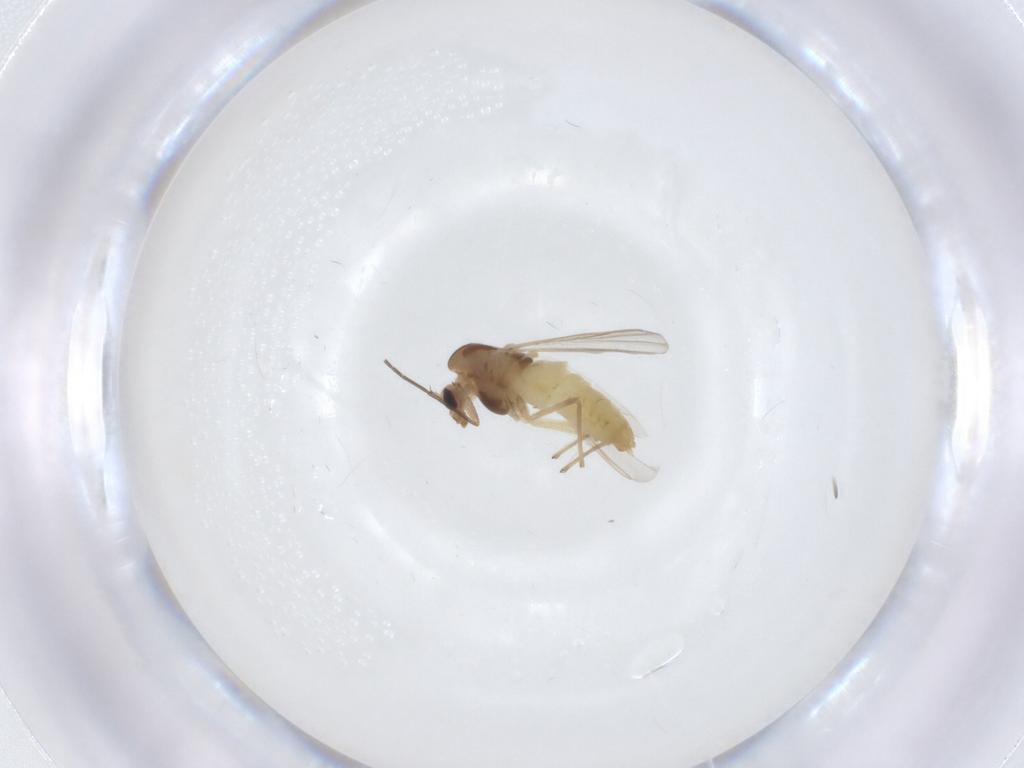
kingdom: Animalia
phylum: Arthropoda
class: Insecta
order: Diptera
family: Chironomidae
